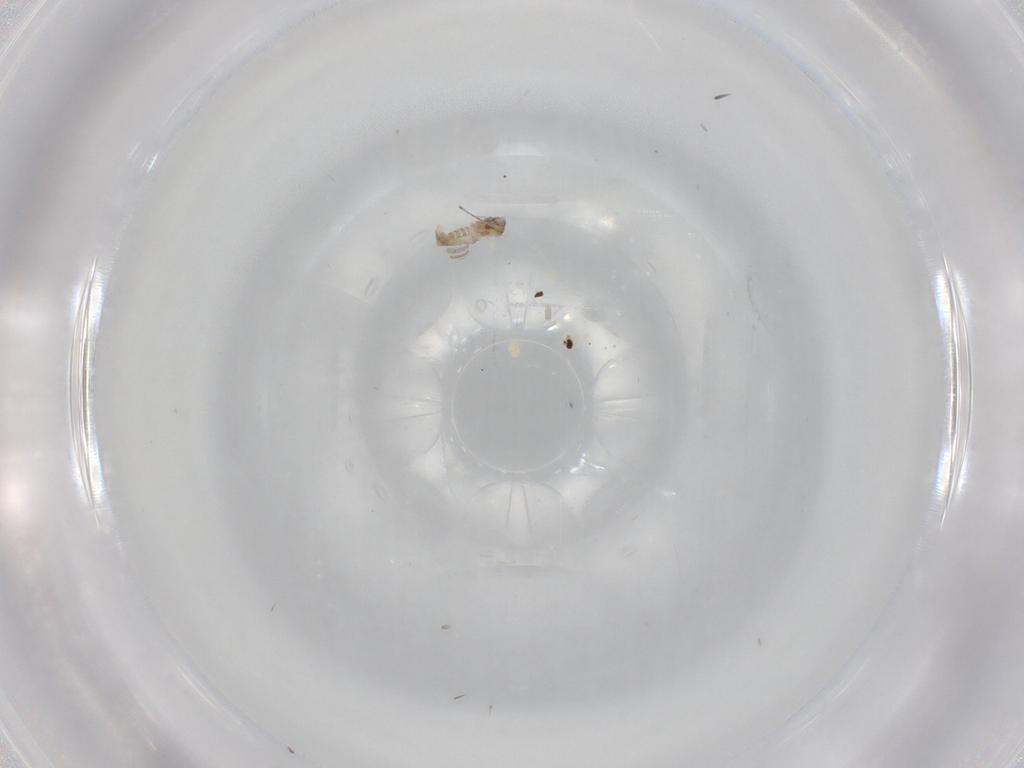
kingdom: Animalia
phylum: Arthropoda
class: Insecta
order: Diptera
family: Cecidomyiidae
